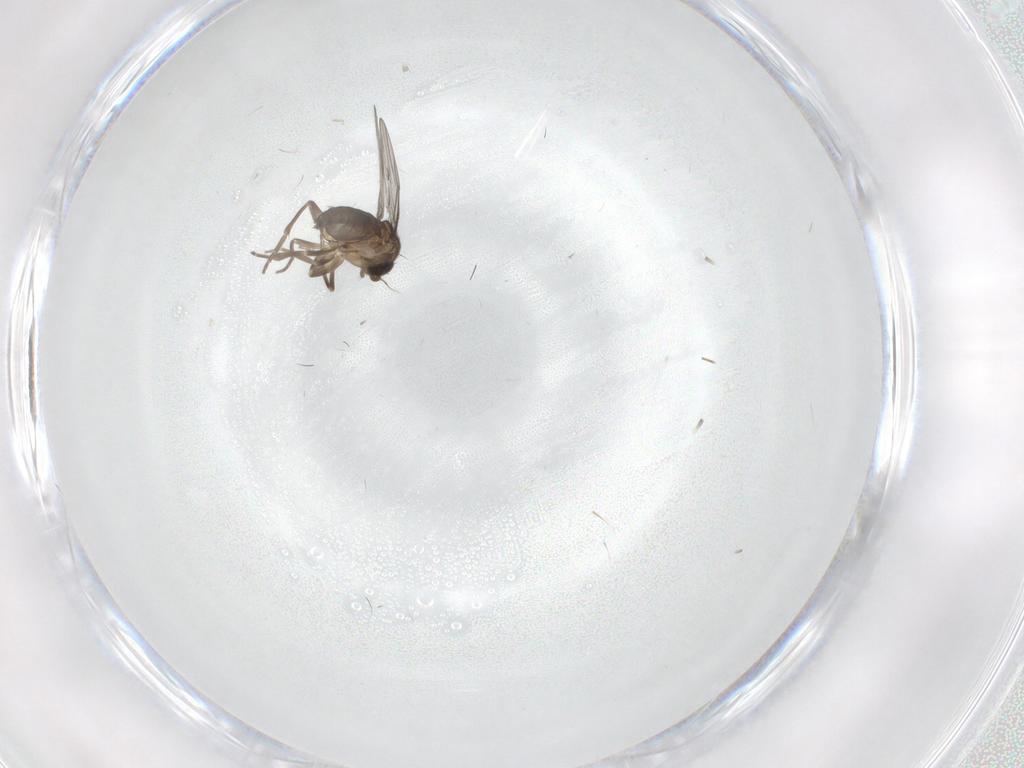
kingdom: Animalia
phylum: Arthropoda
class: Insecta
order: Diptera
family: Phoridae
